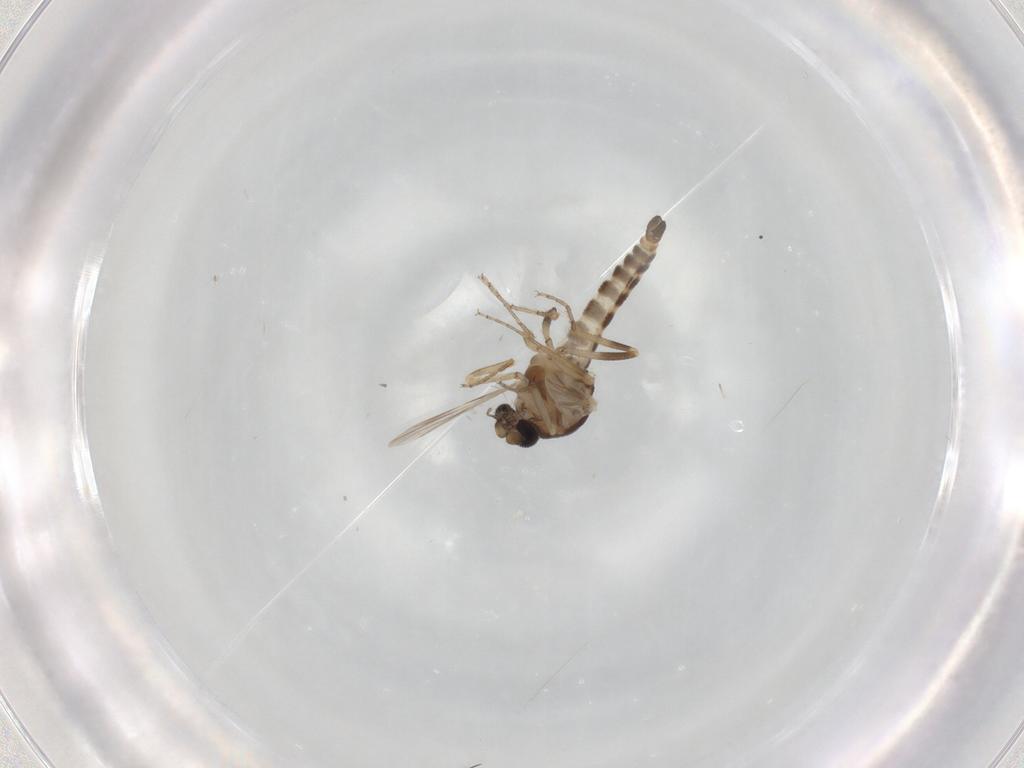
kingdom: Animalia
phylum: Arthropoda
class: Insecta
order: Diptera
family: Ceratopogonidae
